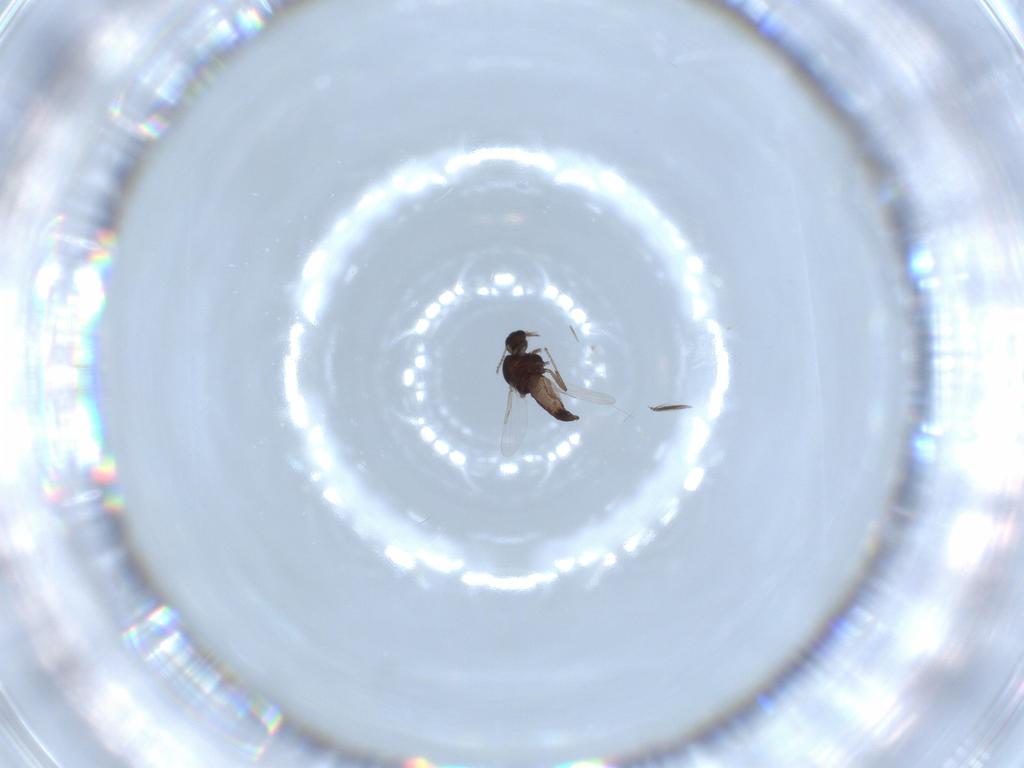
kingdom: Animalia
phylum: Arthropoda
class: Insecta
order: Diptera
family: Ceratopogonidae
